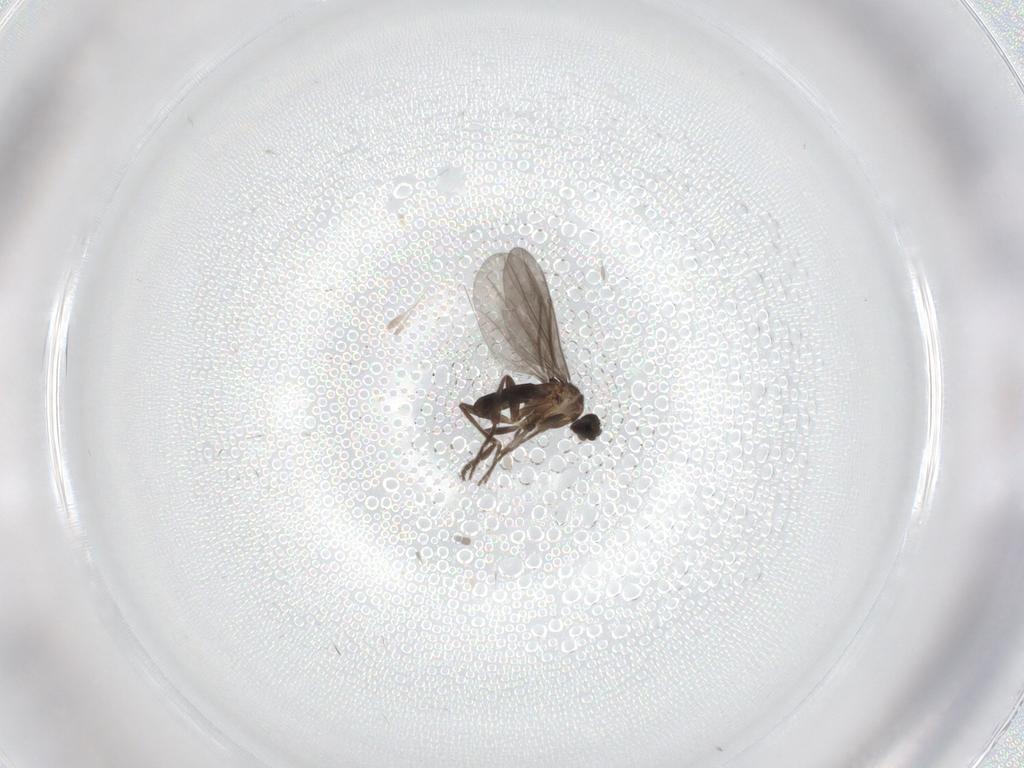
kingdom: Animalia
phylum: Arthropoda
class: Insecta
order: Diptera
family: Phoridae
